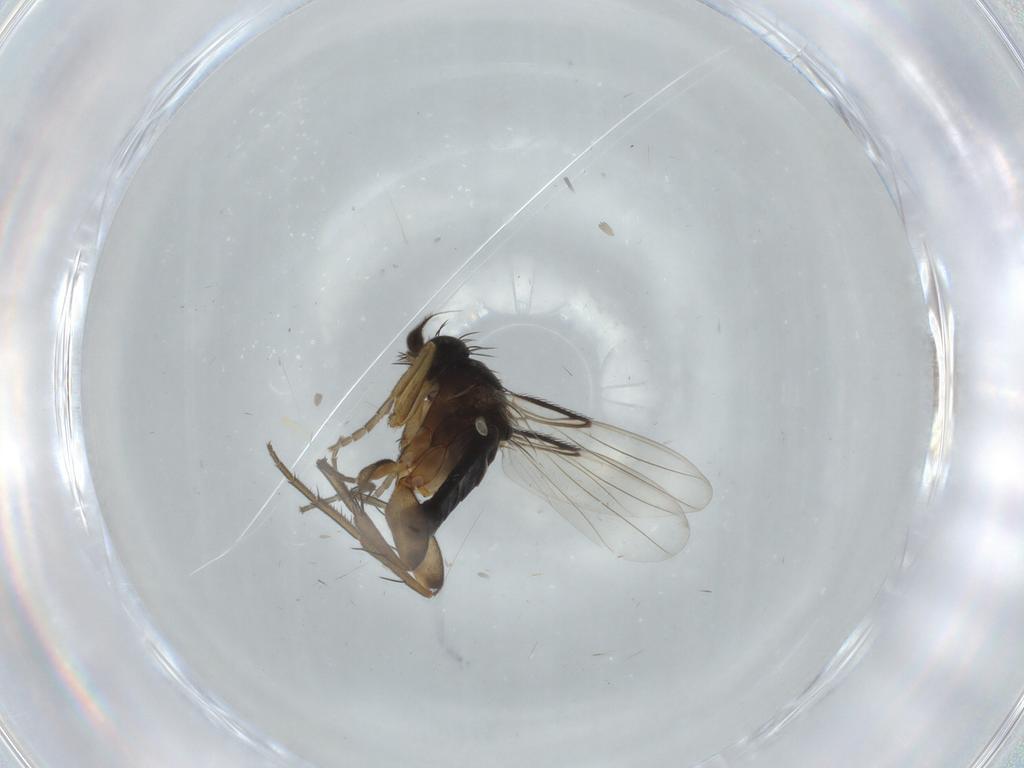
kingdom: Animalia
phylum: Arthropoda
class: Insecta
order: Diptera
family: Phoridae
